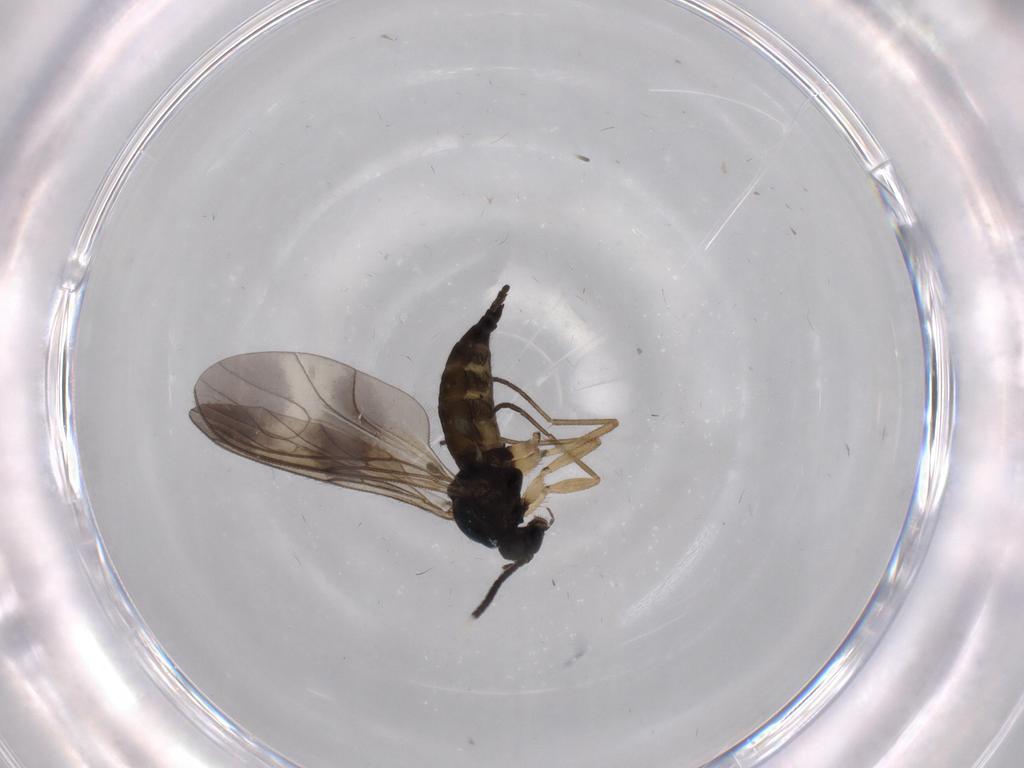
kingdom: Animalia
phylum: Arthropoda
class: Insecta
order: Diptera
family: Sciaridae
